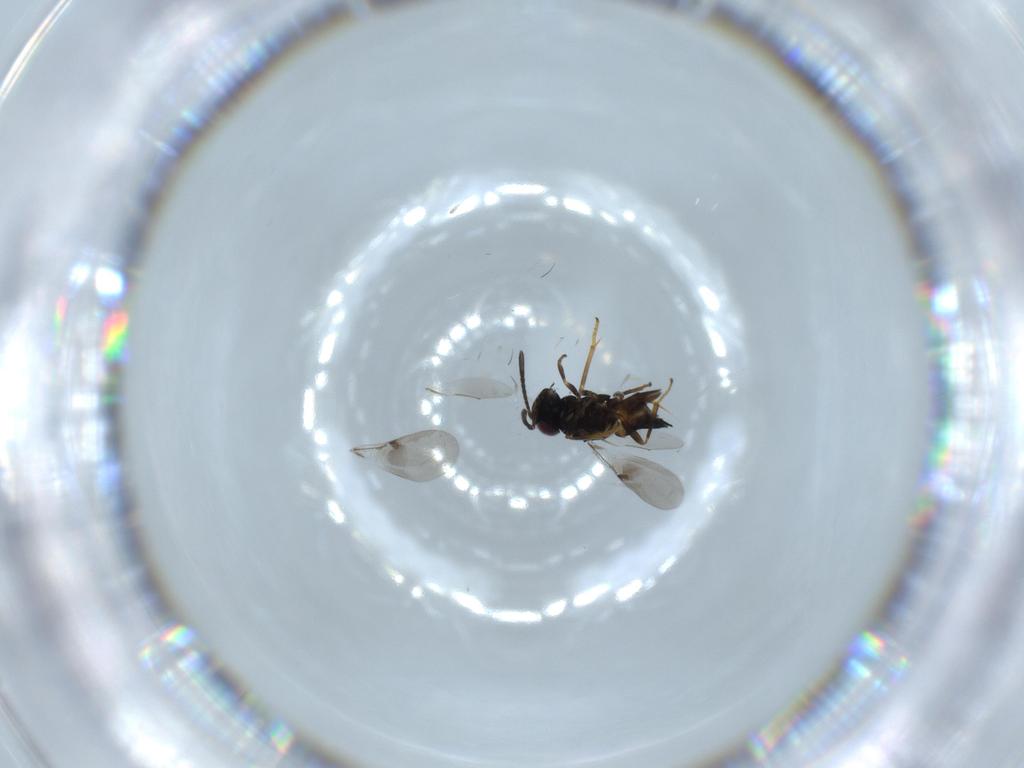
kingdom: Animalia
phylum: Arthropoda
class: Insecta
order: Hymenoptera
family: Encyrtidae
